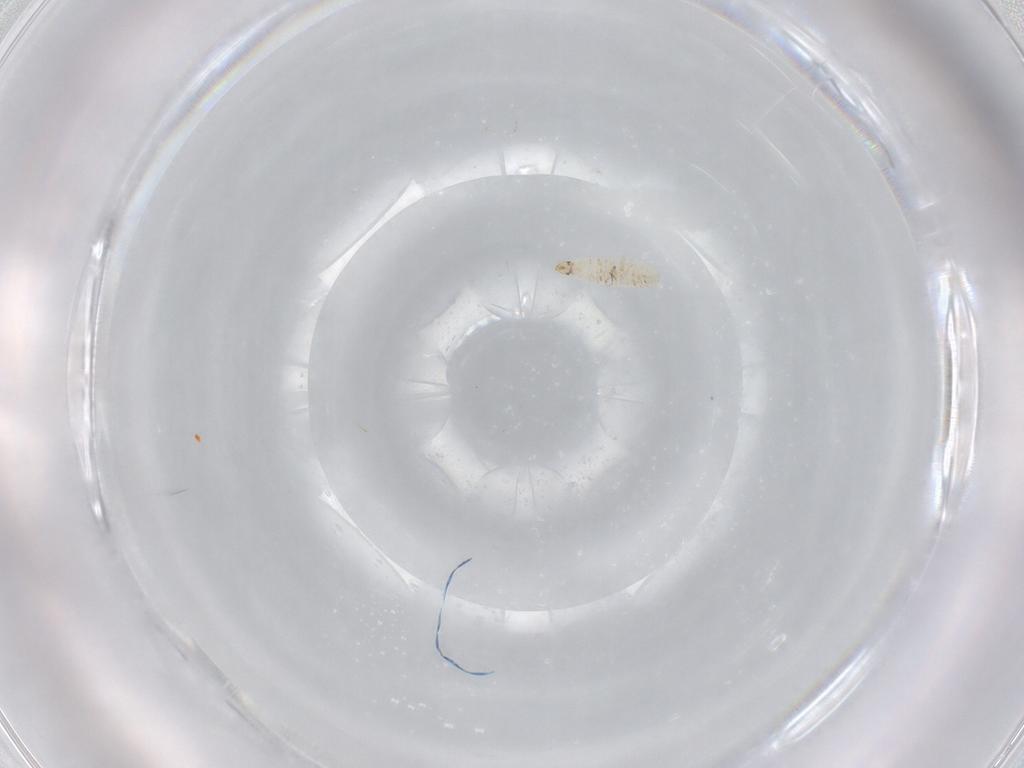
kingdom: Animalia
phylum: Arthropoda
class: Insecta
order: Diptera
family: Cecidomyiidae
